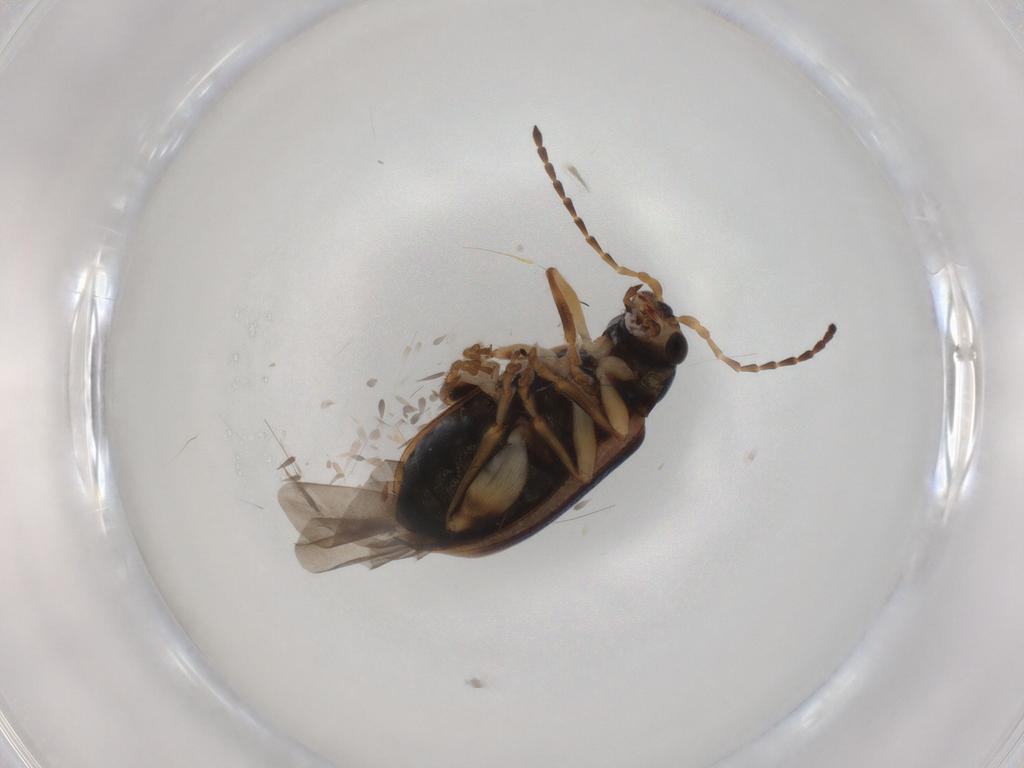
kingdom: Animalia
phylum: Arthropoda
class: Insecta
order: Coleoptera
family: Chrysomelidae
